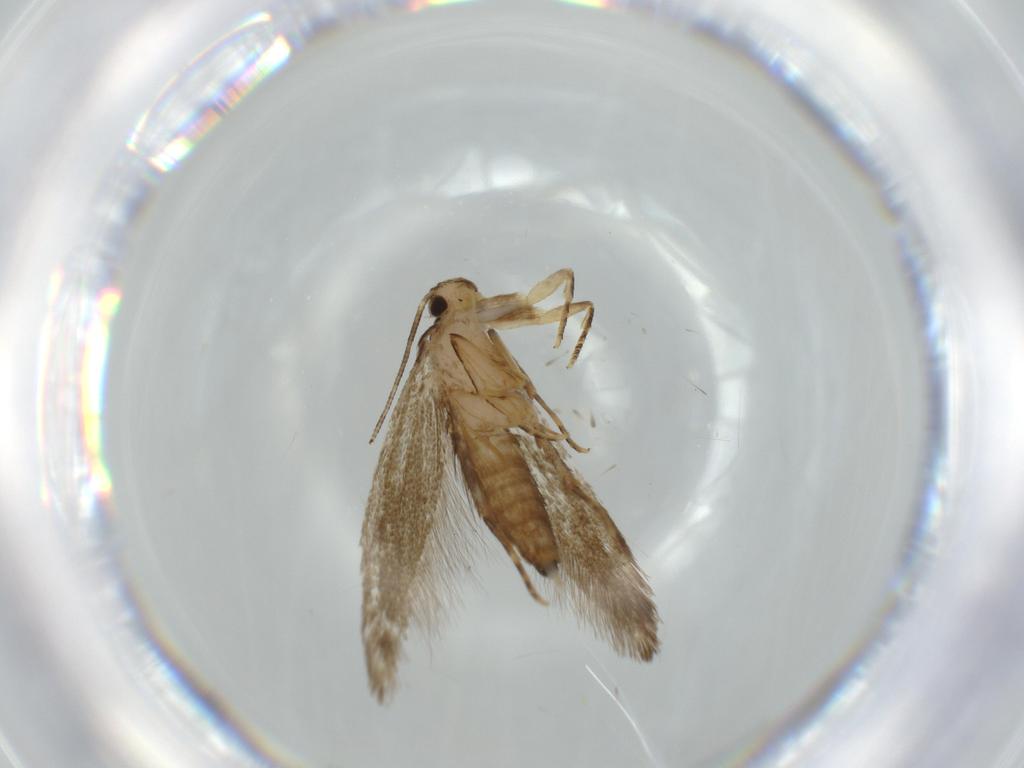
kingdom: Animalia
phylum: Arthropoda
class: Insecta
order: Lepidoptera
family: Tineidae
